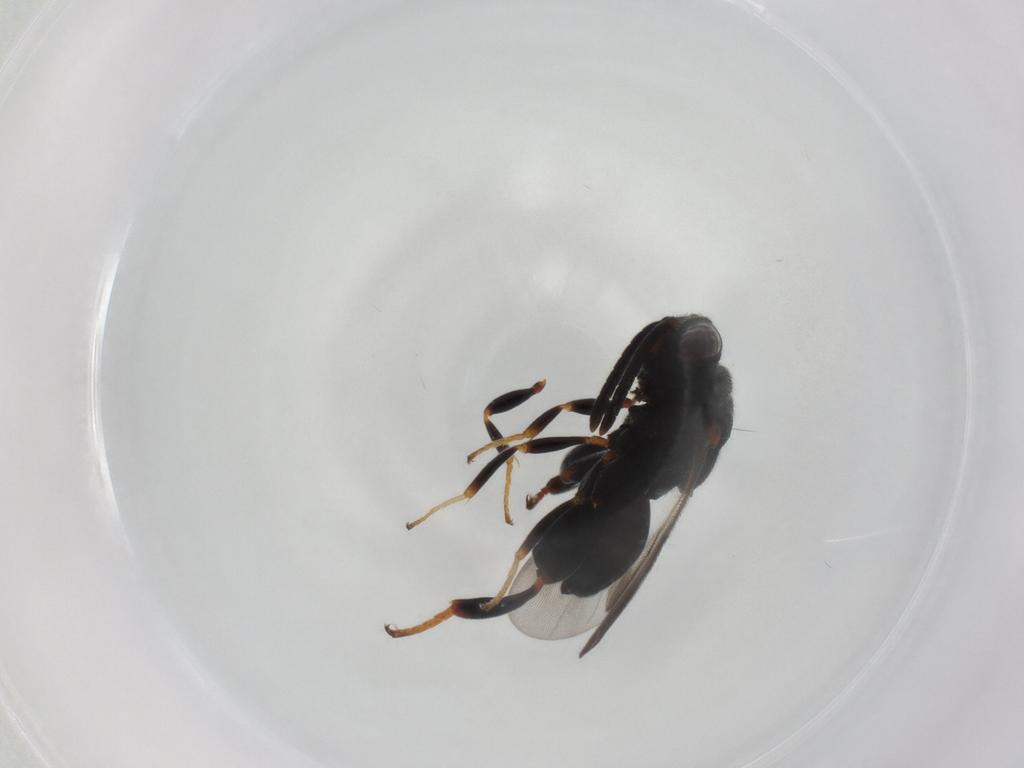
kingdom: Animalia
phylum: Arthropoda
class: Insecta
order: Hymenoptera
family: Chalcididae
